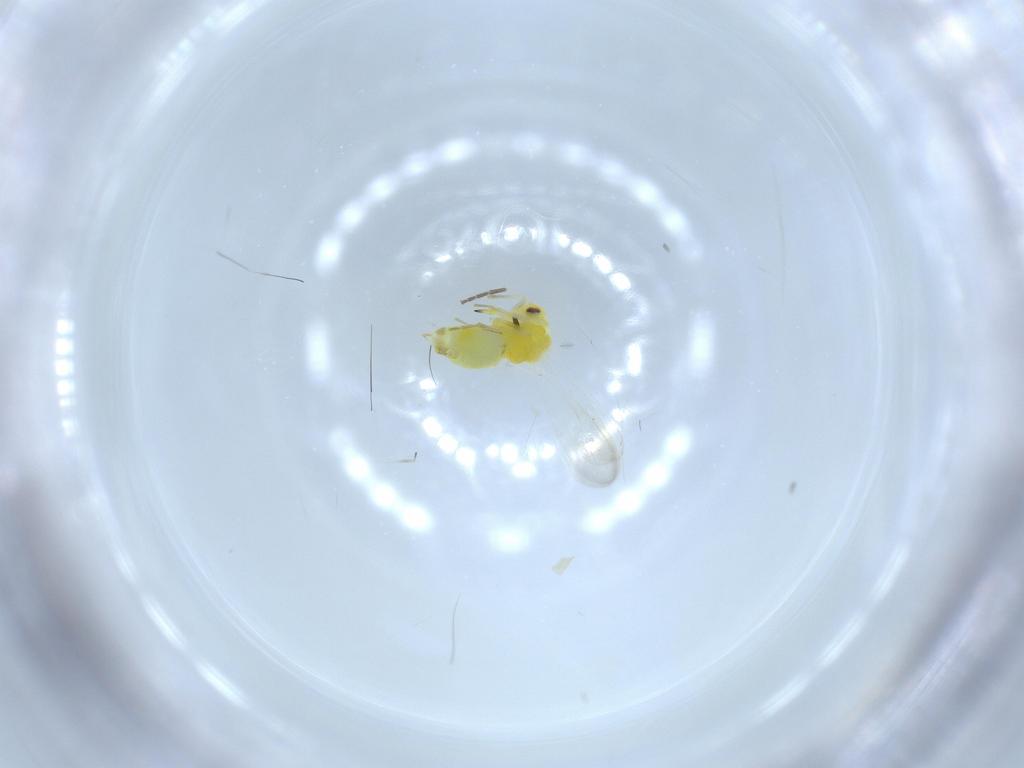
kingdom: Animalia
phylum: Arthropoda
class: Insecta
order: Hemiptera
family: Aleyrodidae
